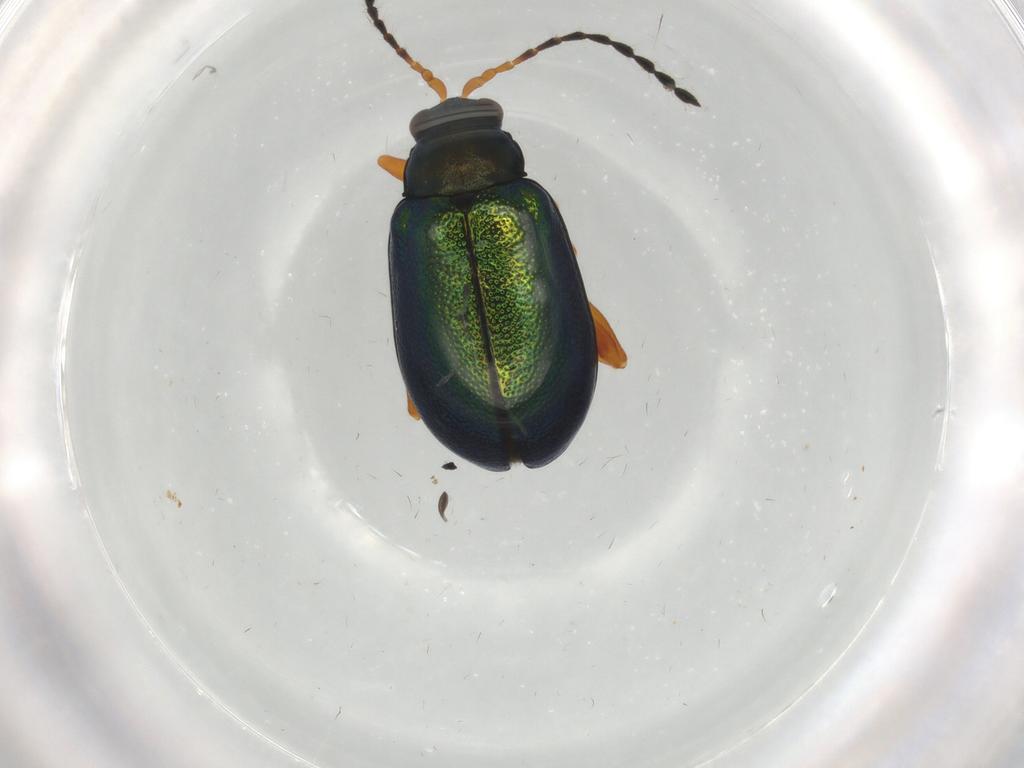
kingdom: Animalia
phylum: Arthropoda
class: Insecta
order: Coleoptera
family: Chrysomelidae
